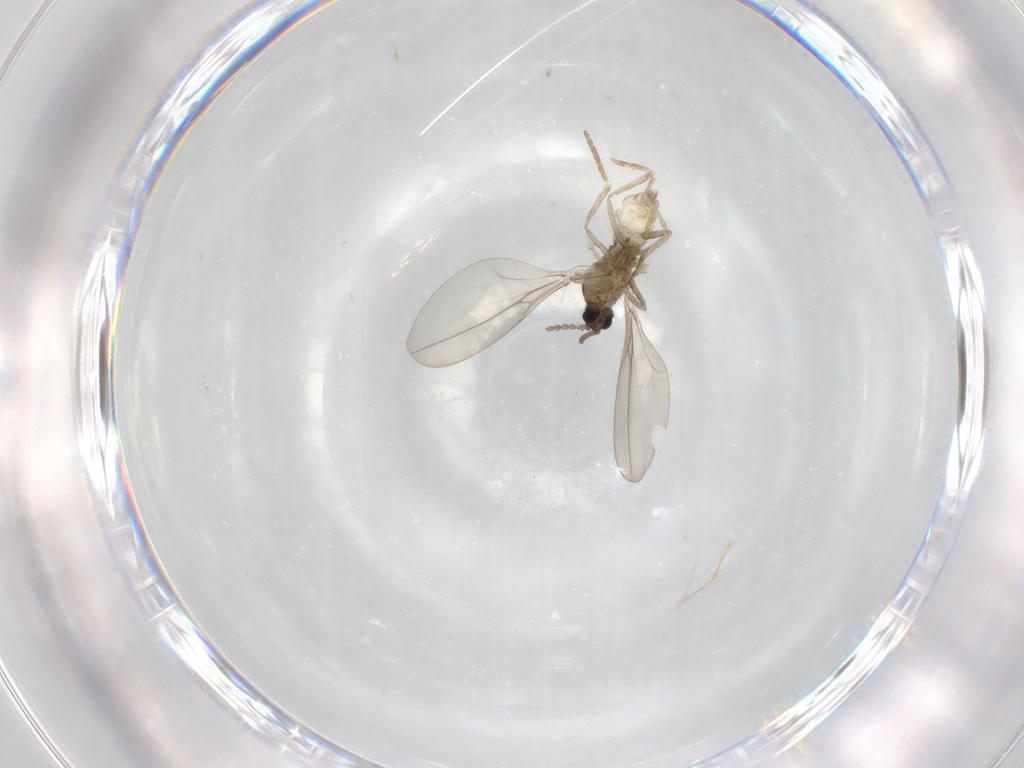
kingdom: Animalia
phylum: Arthropoda
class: Insecta
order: Diptera
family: Cecidomyiidae
